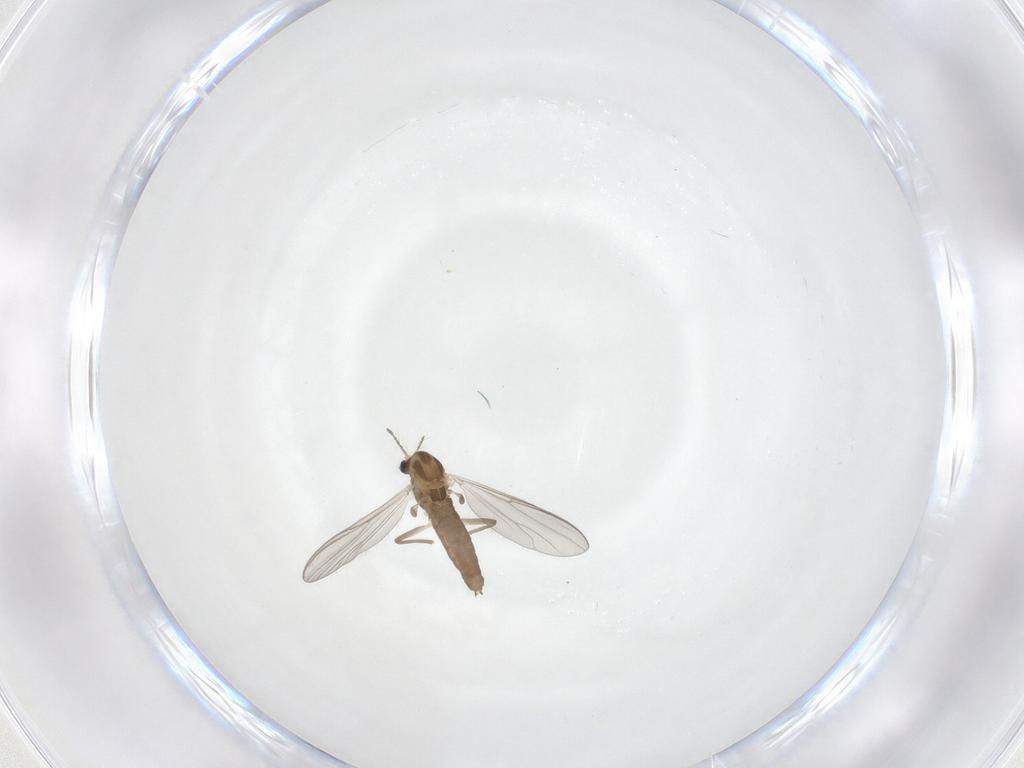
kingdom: Animalia
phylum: Arthropoda
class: Insecta
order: Diptera
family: Chironomidae
